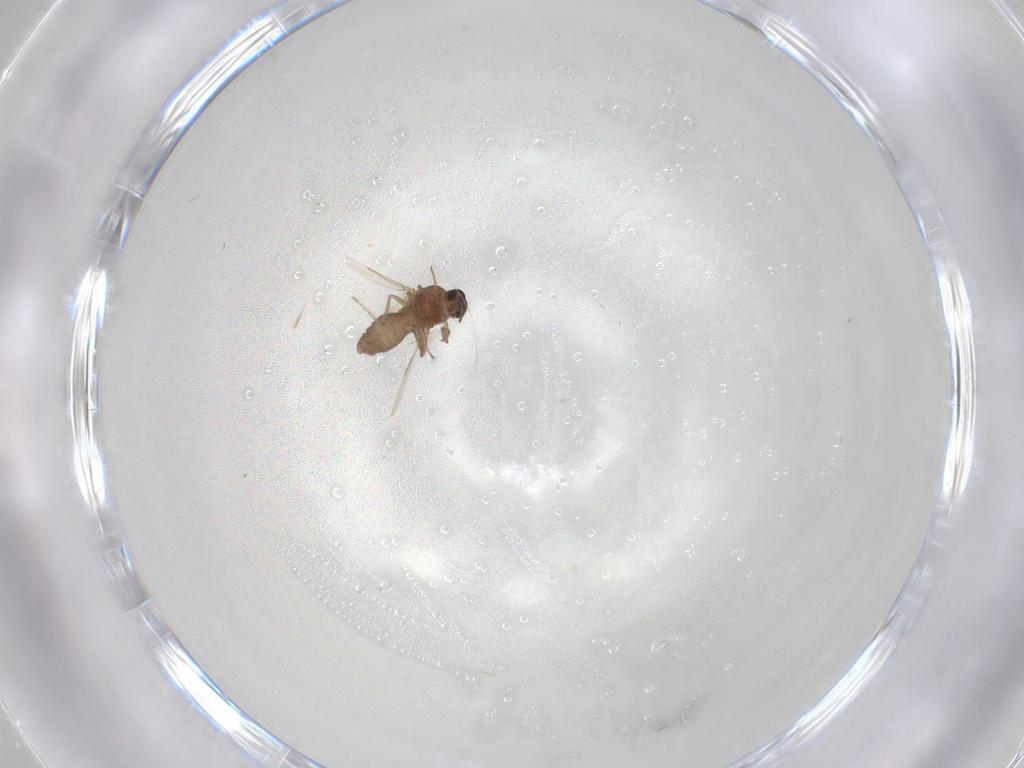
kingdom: Animalia
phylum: Arthropoda
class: Insecta
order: Diptera
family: Ceratopogonidae
